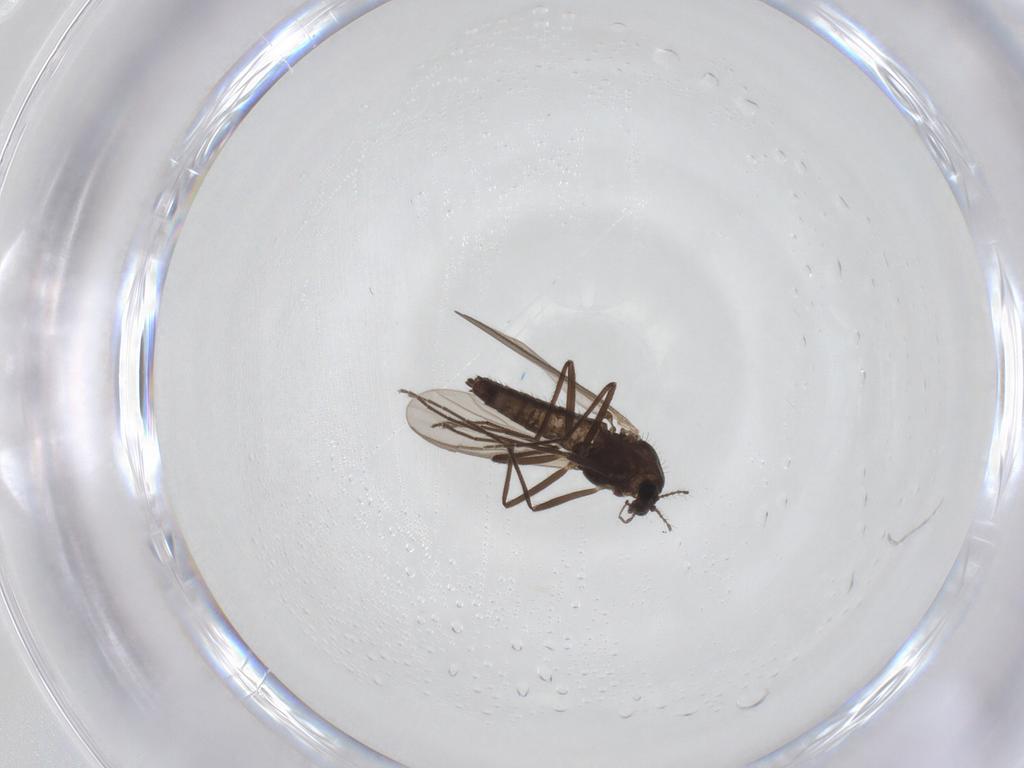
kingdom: Animalia
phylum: Arthropoda
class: Insecta
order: Diptera
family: Chironomidae
